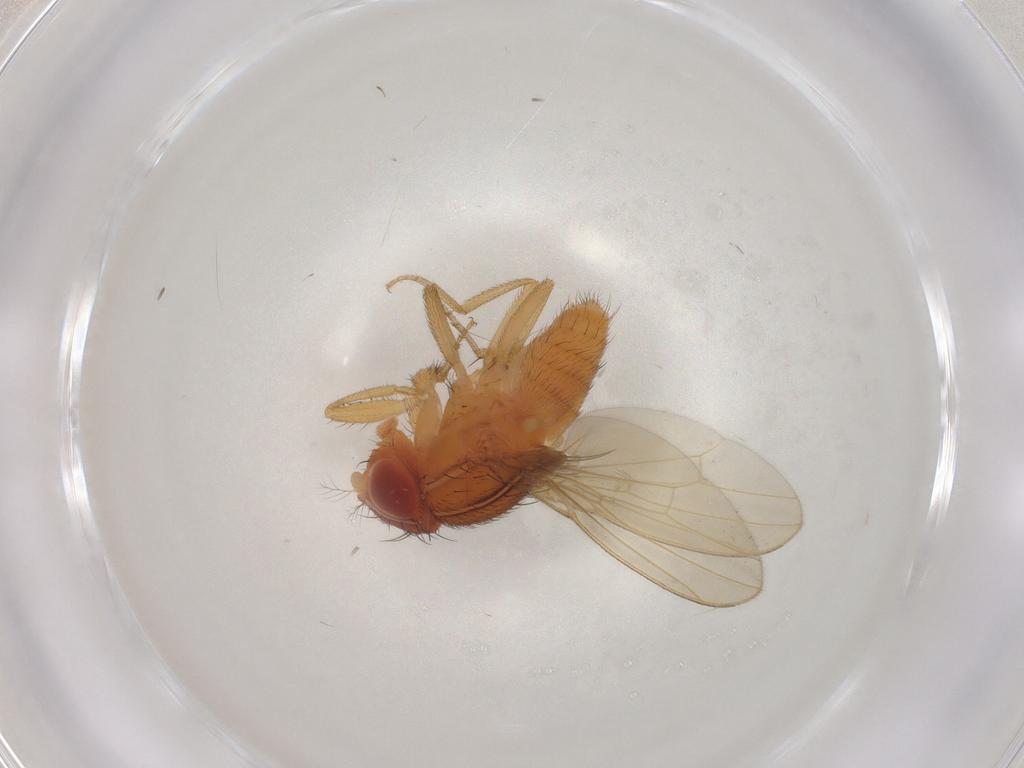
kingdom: Animalia
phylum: Arthropoda
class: Insecta
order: Diptera
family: Drosophilidae
